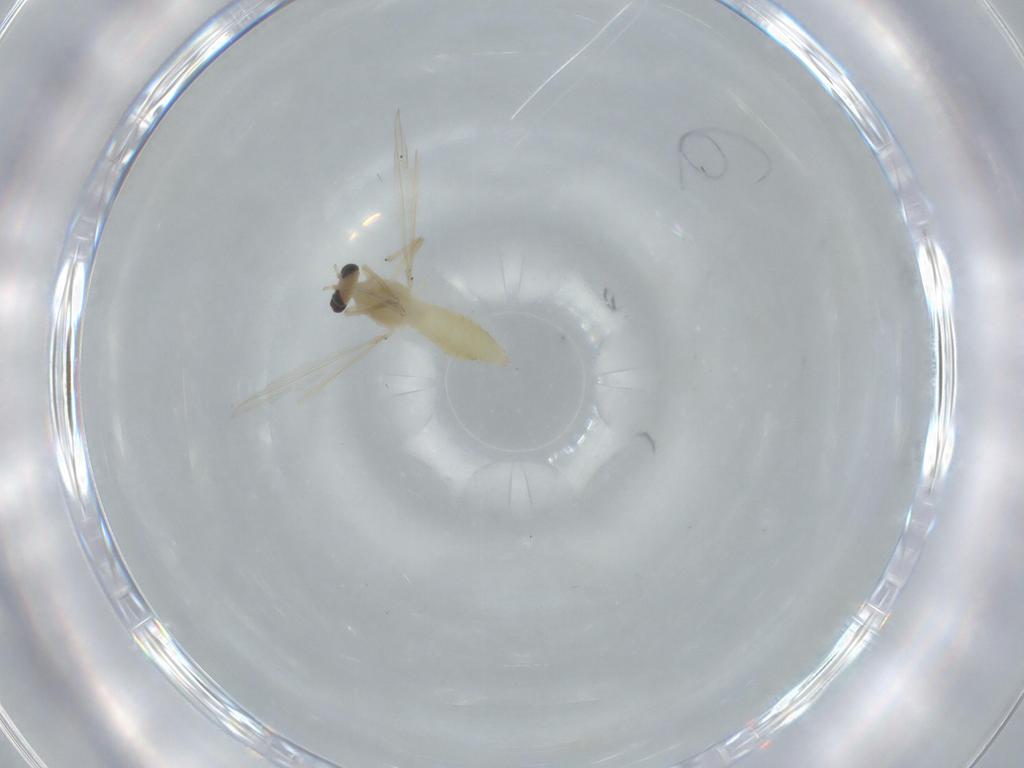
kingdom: Animalia
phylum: Arthropoda
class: Insecta
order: Diptera
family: Chironomidae
